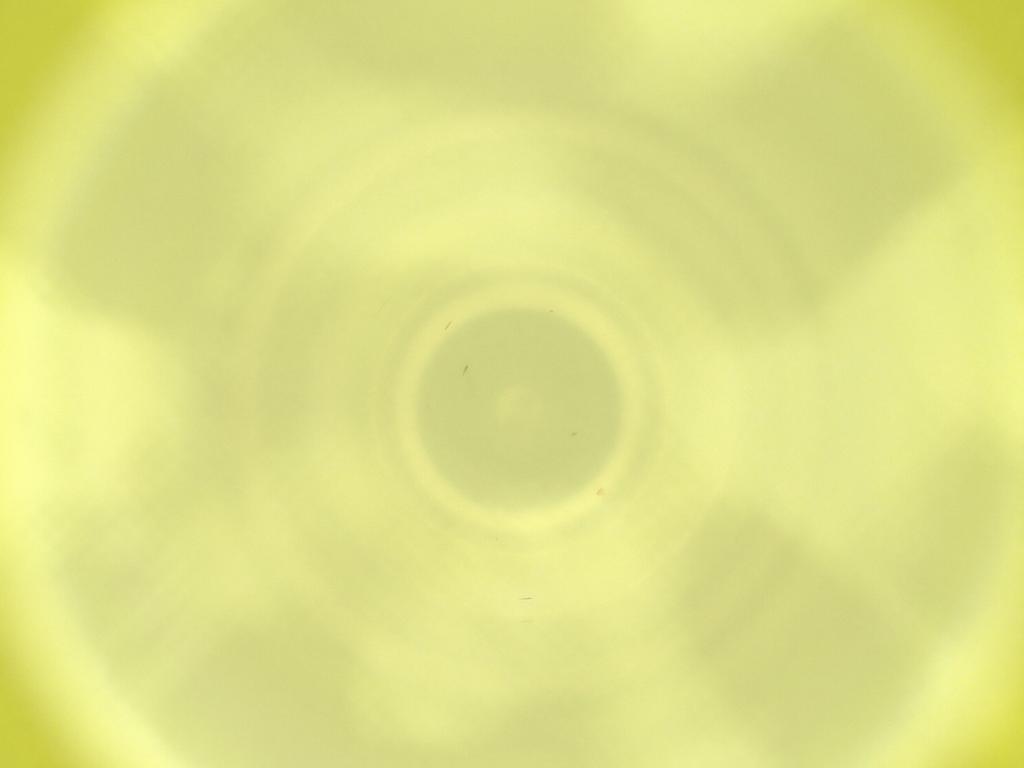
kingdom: Animalia
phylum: Arthropoda
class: Insecta
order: Diptera
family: Cecidomyiidae
